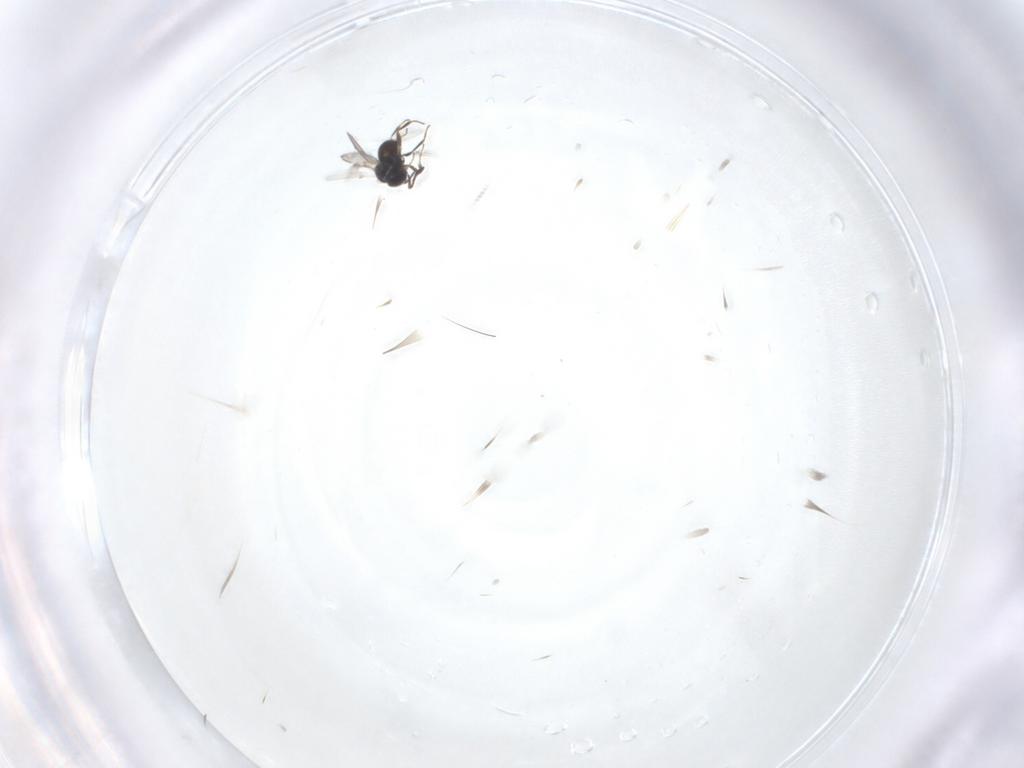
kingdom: Animalia
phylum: Arthropoda
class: Insecta
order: Hymenoptera
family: Scelionidae
